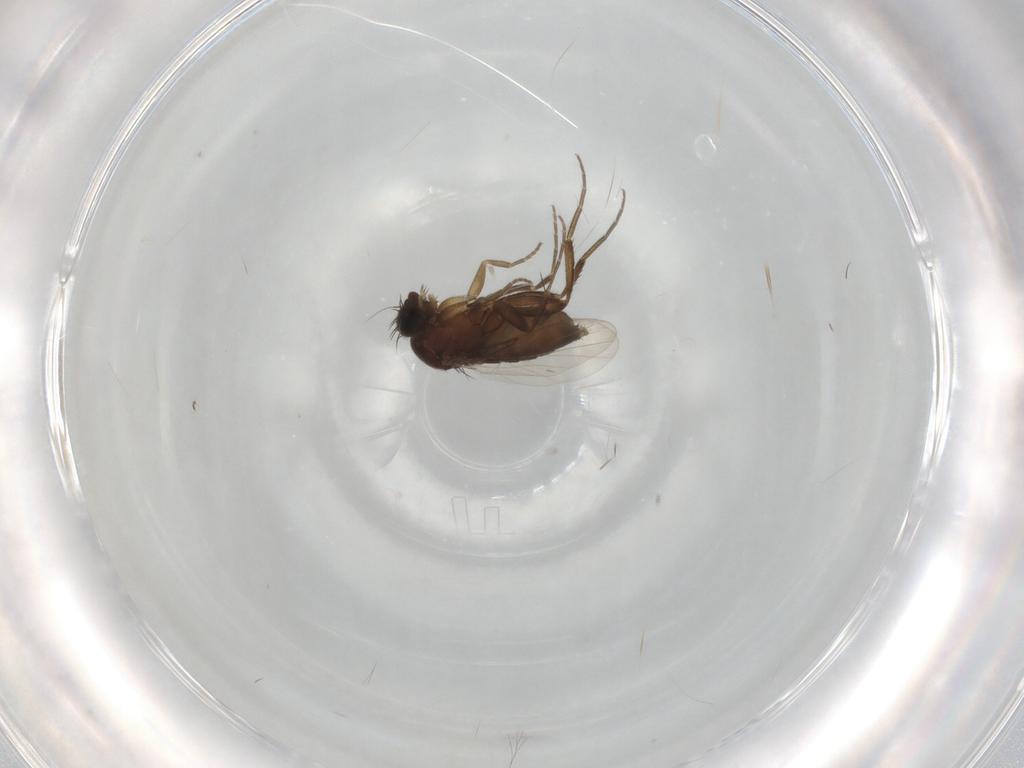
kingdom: Animalia
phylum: Arthropoda
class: Insecta
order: Diptera
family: Phoridae
